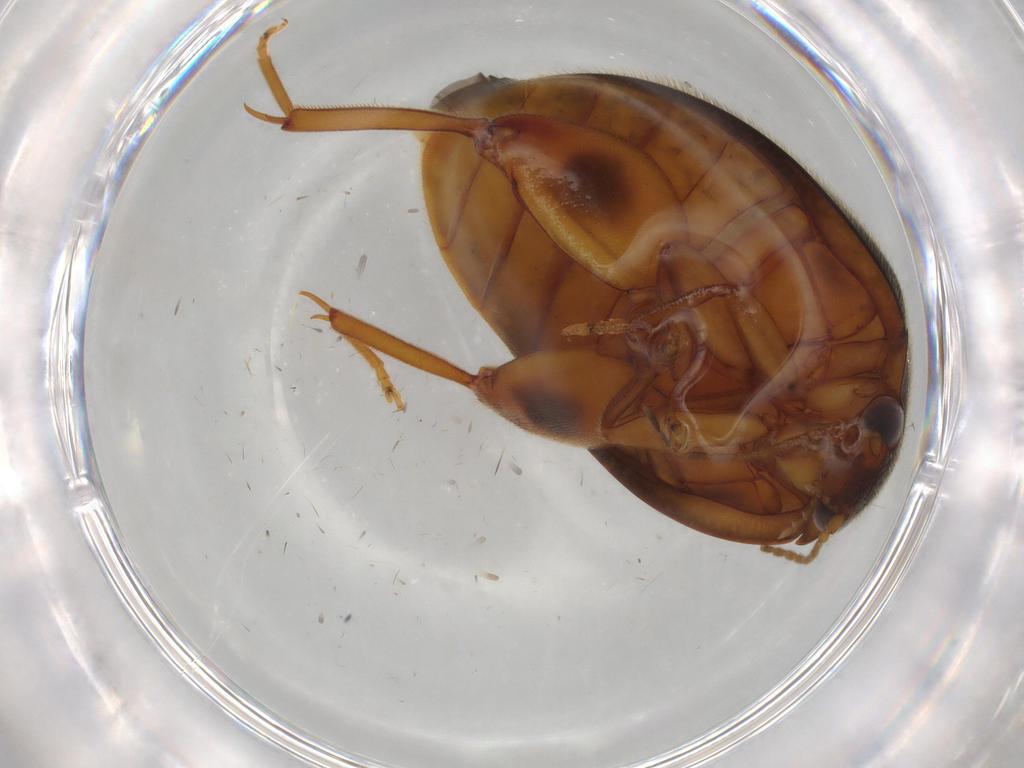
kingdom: Animalia
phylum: Arthropoda
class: Insecta
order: Coleoptera
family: Scirtidae
